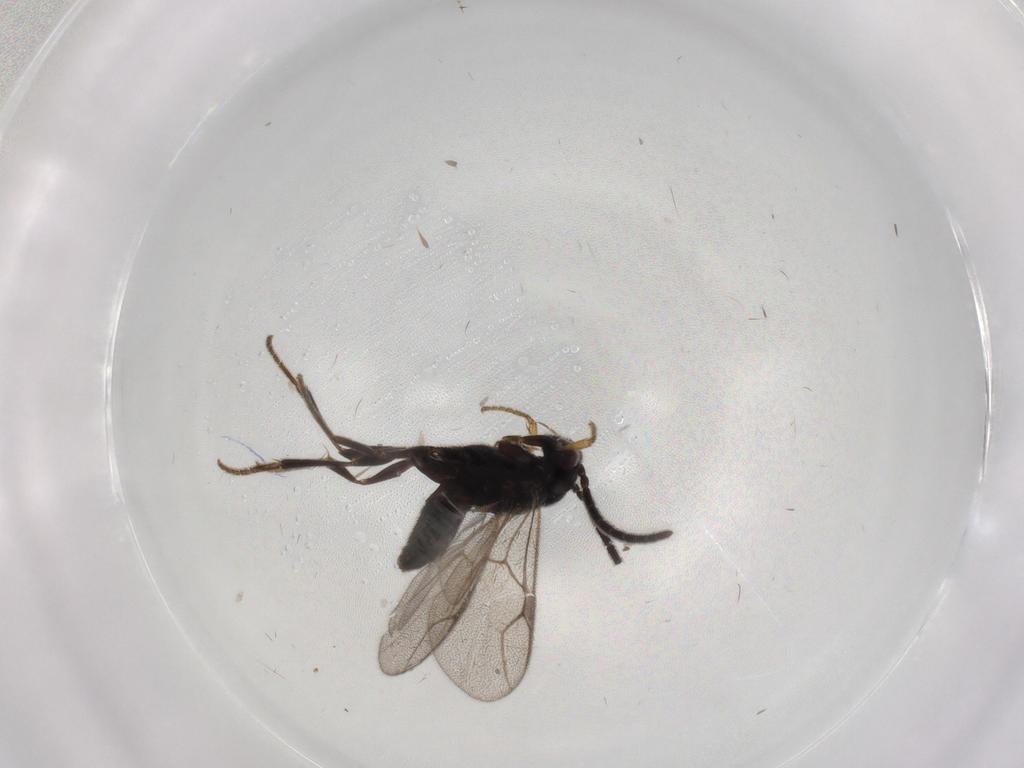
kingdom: Animalia
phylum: Arthropoda
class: Insecta
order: Hymenoptera
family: Dryinidae
